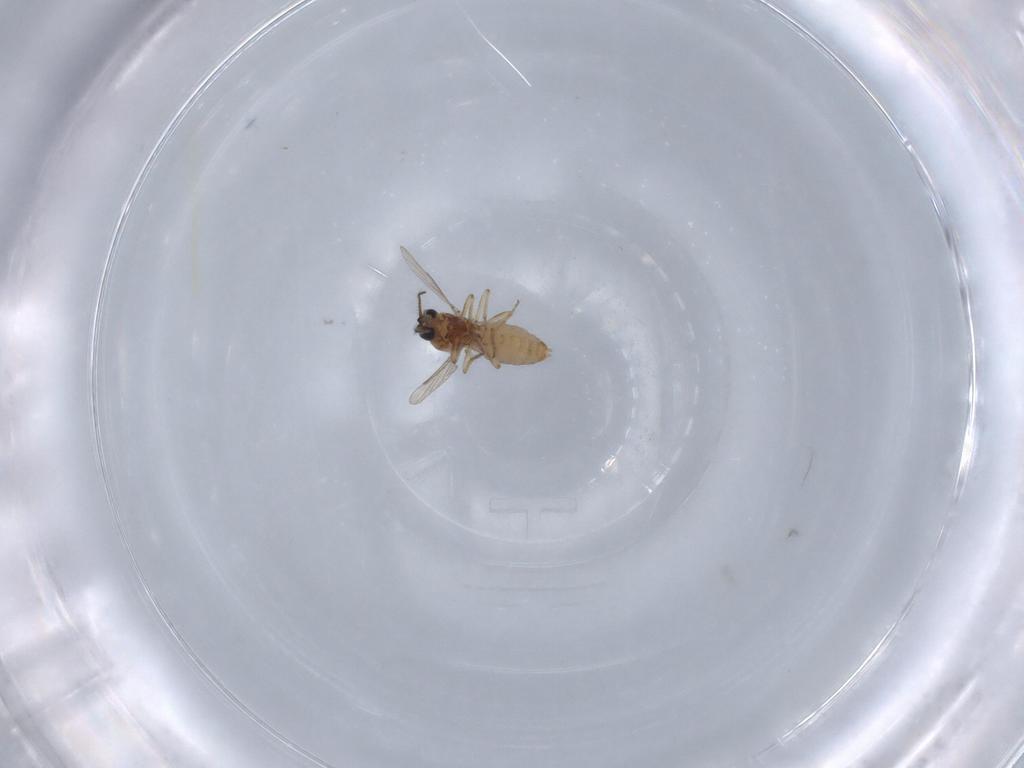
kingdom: Animalia
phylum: Arthropoda
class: Insecta
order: Diptera
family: Ceratopogonidae
